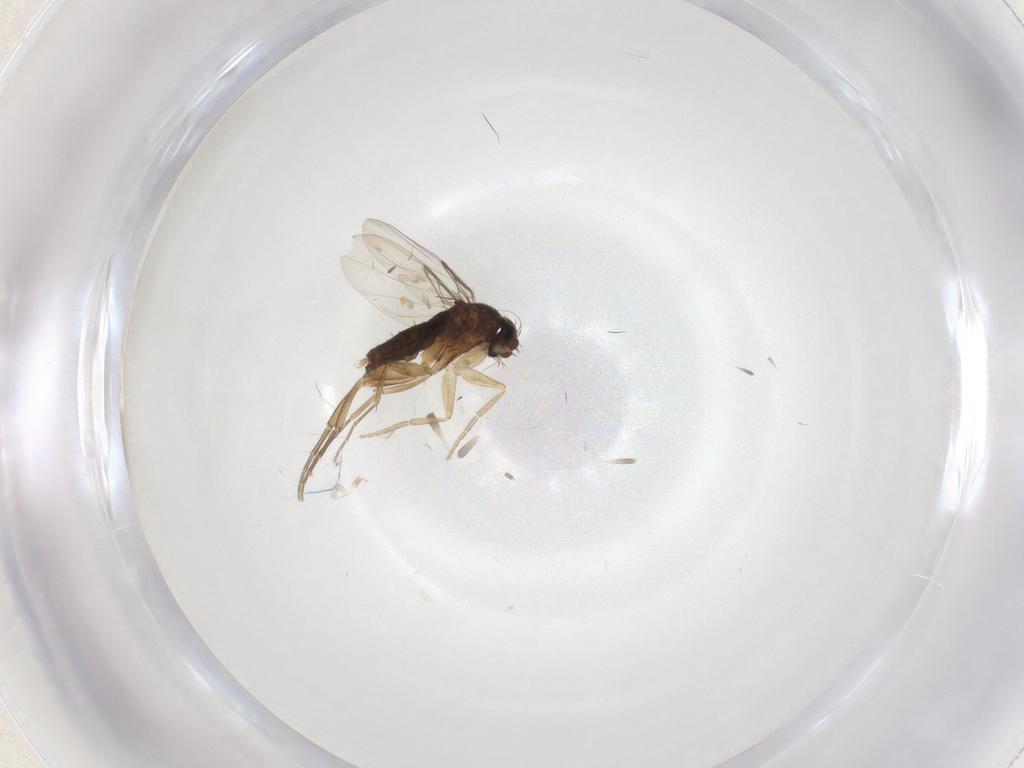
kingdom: Animalia
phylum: Arthropoda
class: Insecta
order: Diptera
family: Phoridae
